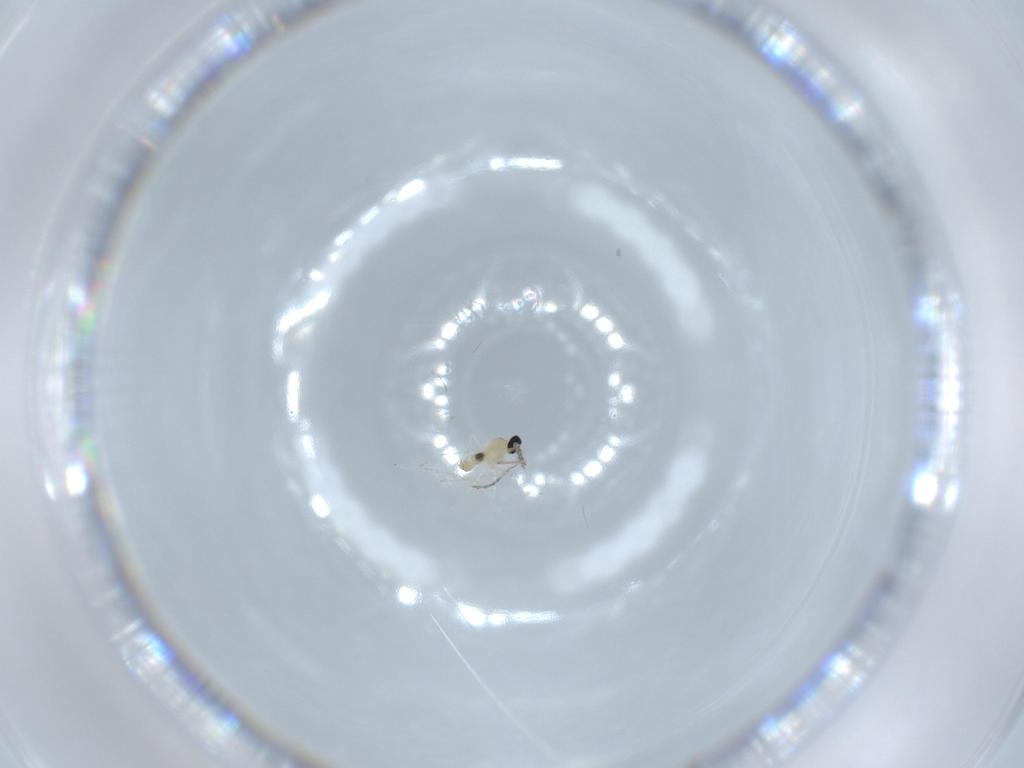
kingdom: Animalia
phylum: Arthropoda
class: Insecta
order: Diptera
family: Cecidomyiidae
